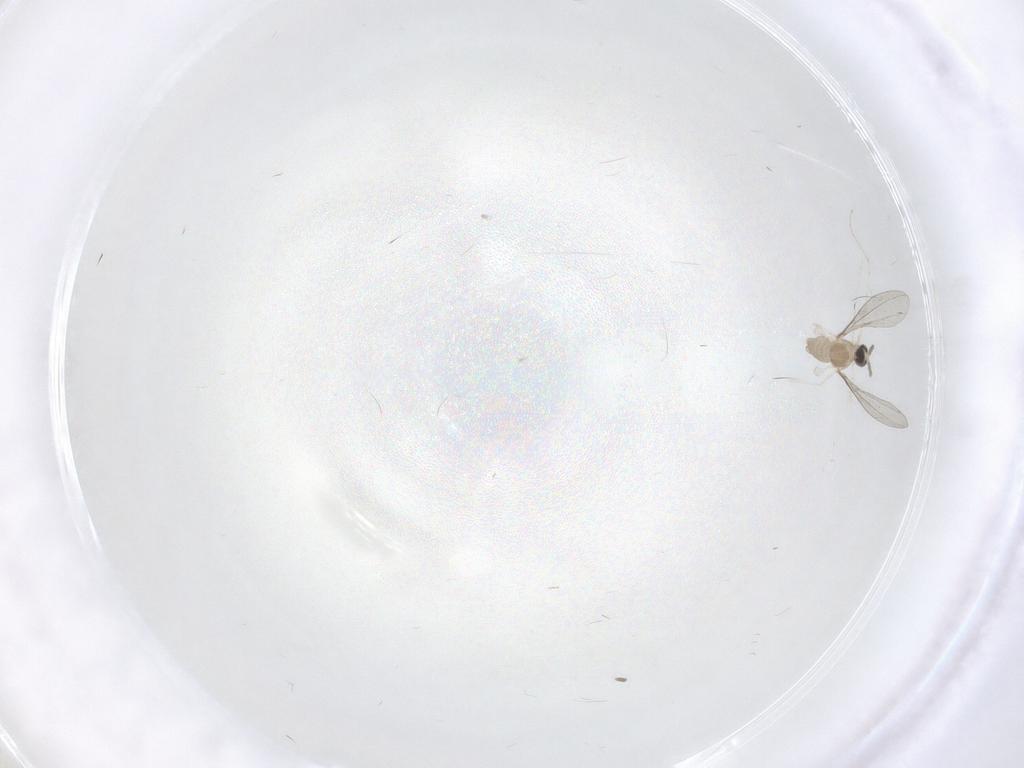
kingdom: Animalia
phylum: Arthropoda
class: Insecta
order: Diptera
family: Cecidomyiidae
